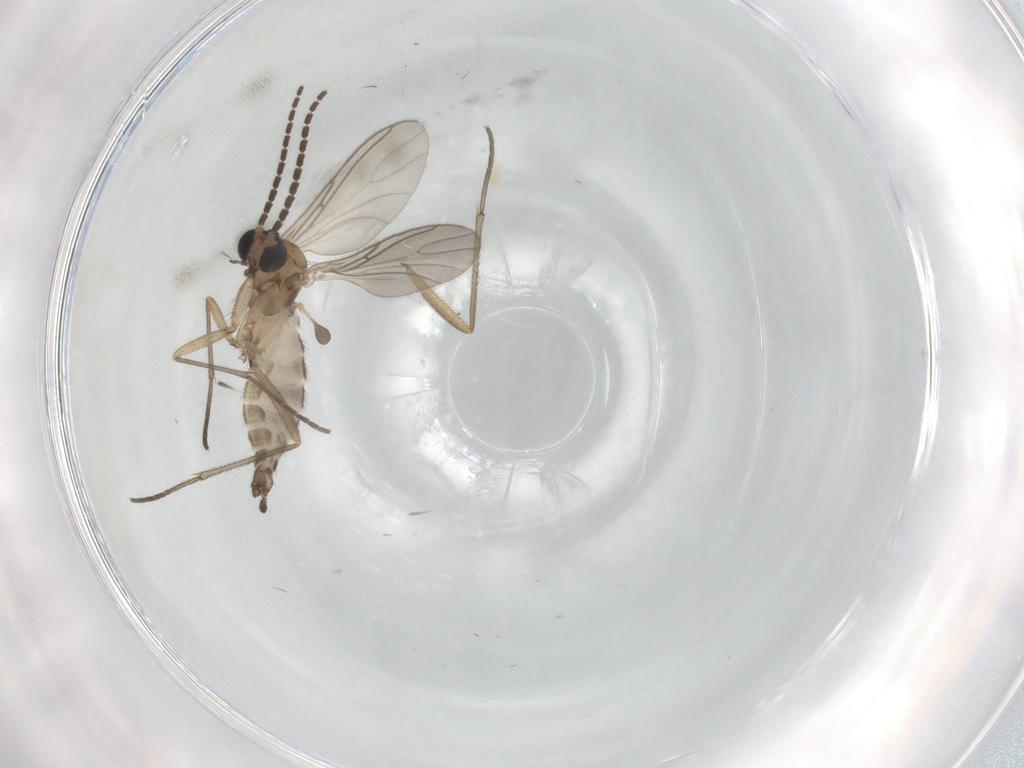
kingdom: Animalia
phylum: Arthropoda
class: Insecta
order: Diptera
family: Sciaridae
